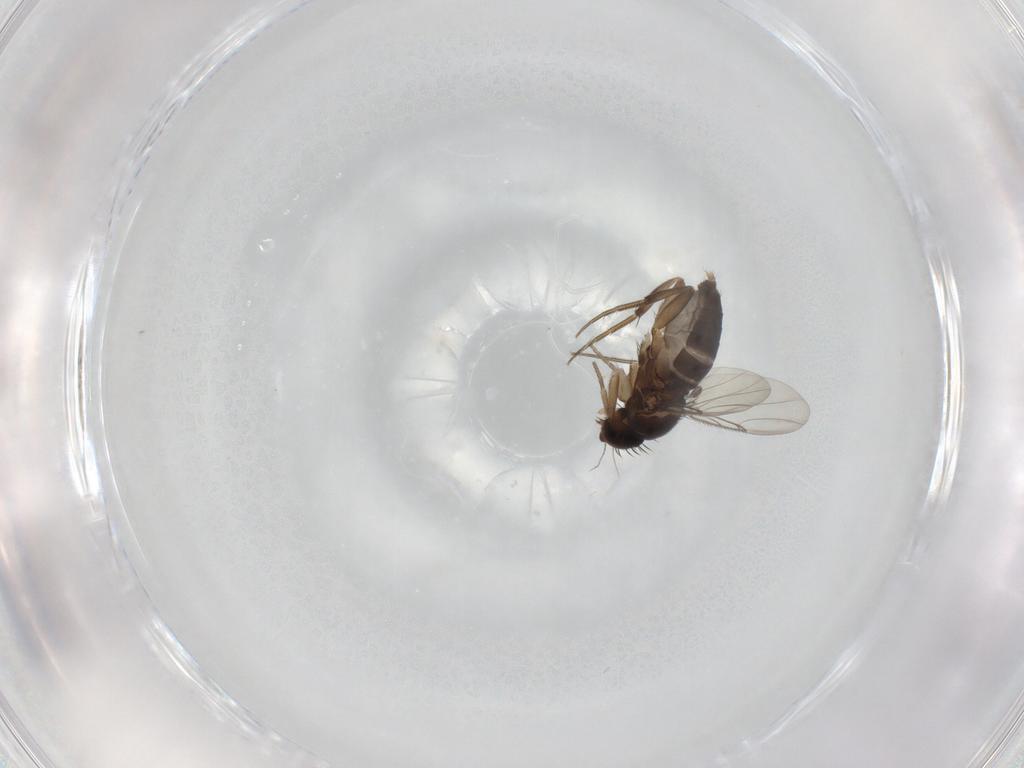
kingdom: Animalia
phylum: Arthropoda
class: Insecta
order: Diptera
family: Phoridae
